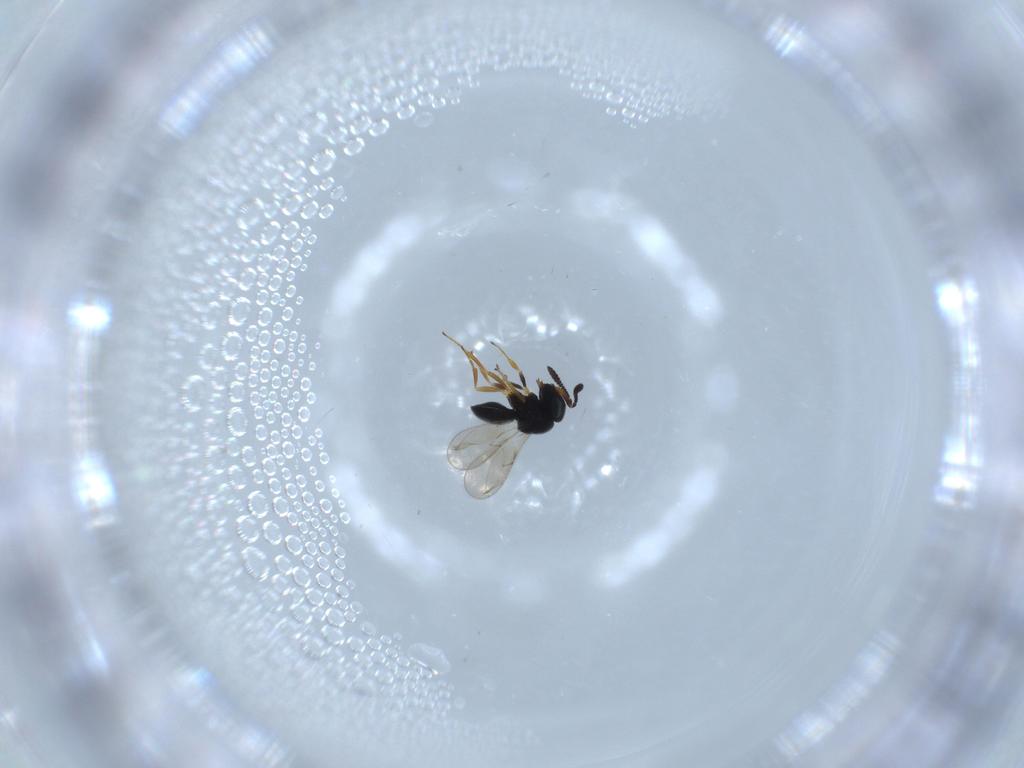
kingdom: Animalia
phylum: Arthropoda
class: Insecta
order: Hymenoptera
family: Scelionidae
